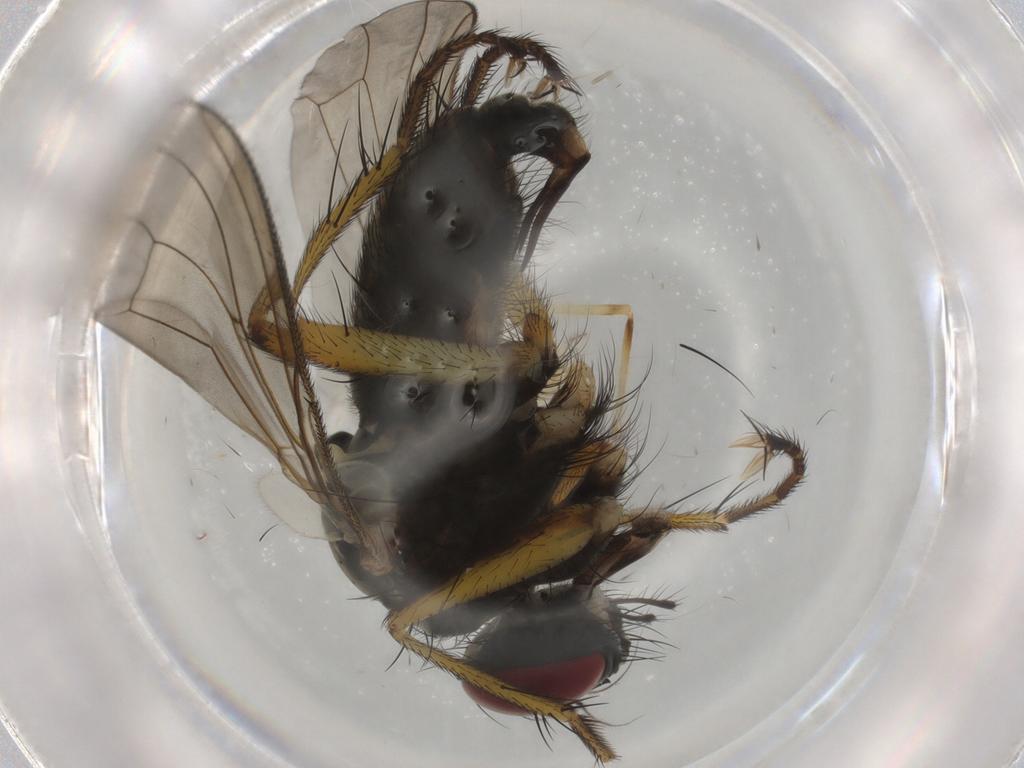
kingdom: Animalia
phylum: Arthropoda
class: Insecta
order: Diptera
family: Muscidae
